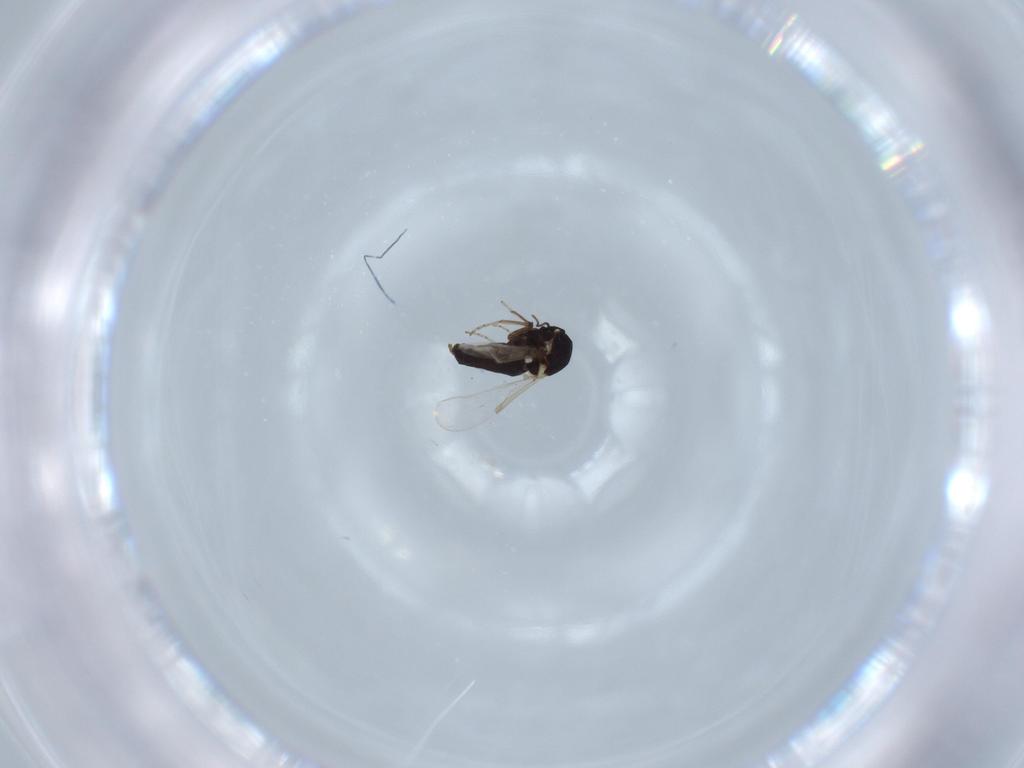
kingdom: Animalia
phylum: Arthropoda
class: Insecta
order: Diptera
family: Ceratopogonidae
